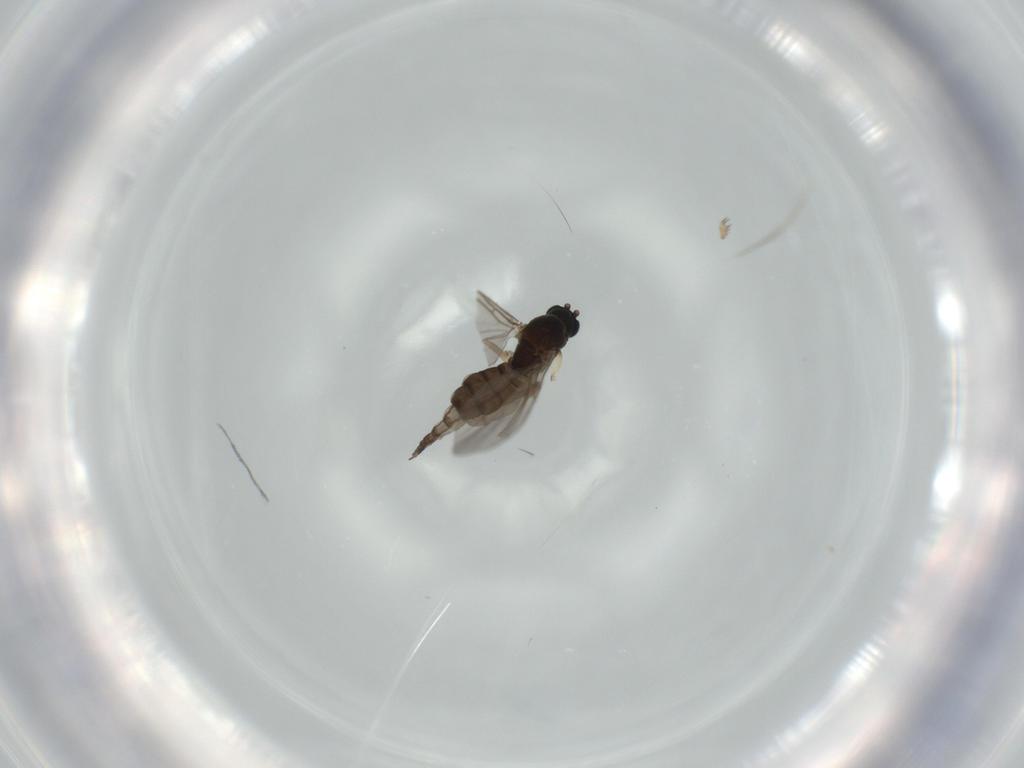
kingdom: Animalia
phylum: Arthropoda
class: Insecta
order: Diptera
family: Sciaridae
